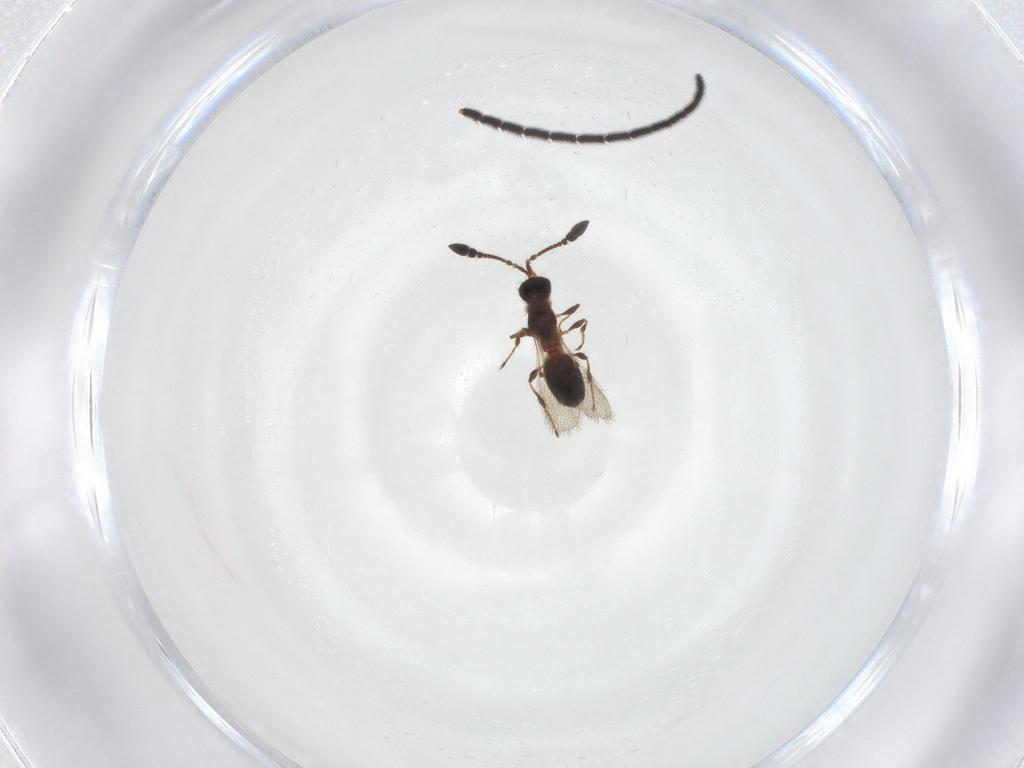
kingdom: Animalia
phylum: Arthropoda
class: Insecta
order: Hymenoptera
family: Diapriidae
